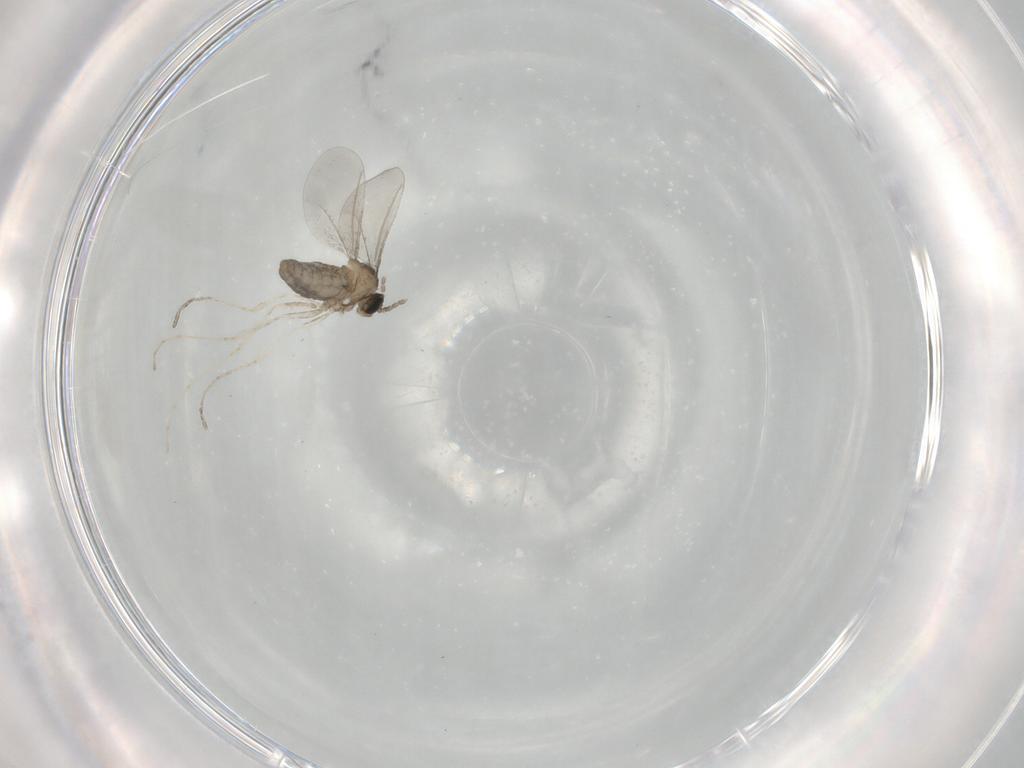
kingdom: Animalia
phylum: Arthropoda
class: Insecta
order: Diptera
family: Cecidomyiidae
